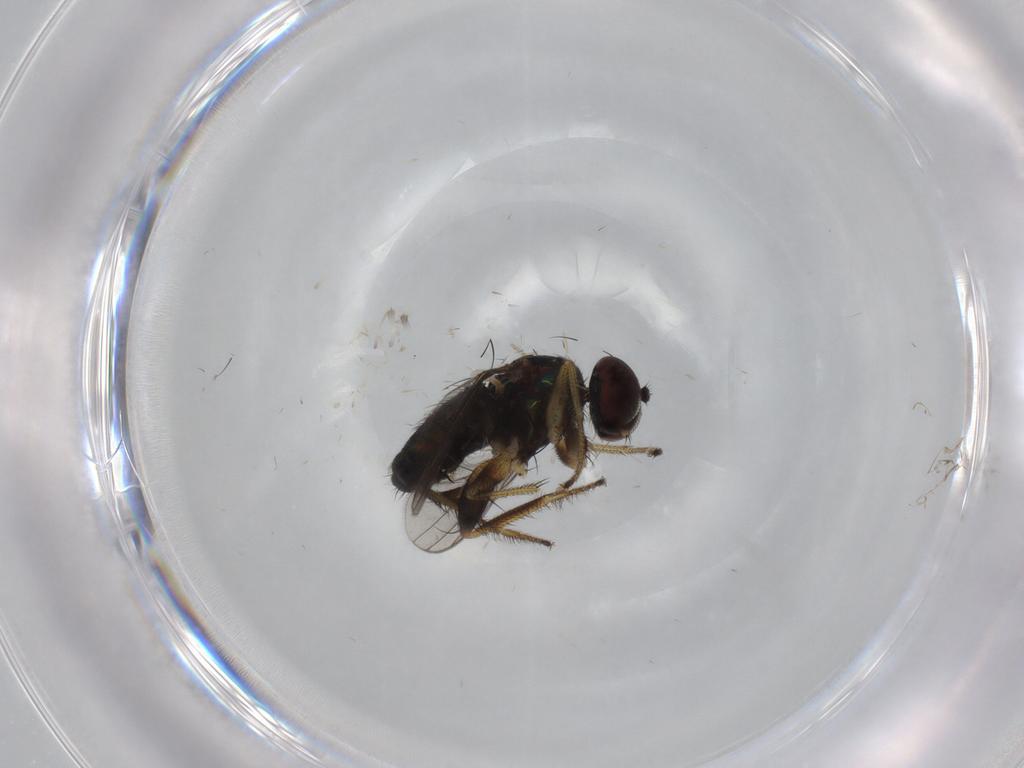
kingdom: Animalia
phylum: Arthropoda
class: Insecta
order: Diptera
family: Dolichopodidae
